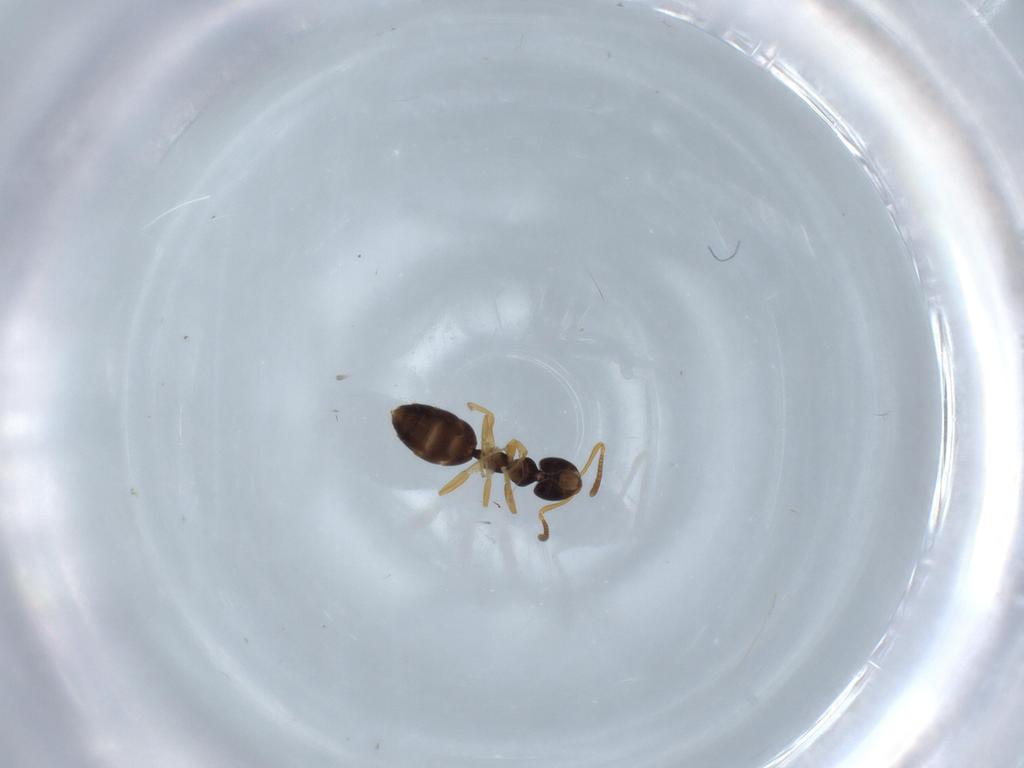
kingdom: Animalia
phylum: Arthropoda
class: Insecta
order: Hymenoptera
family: Formicidae
